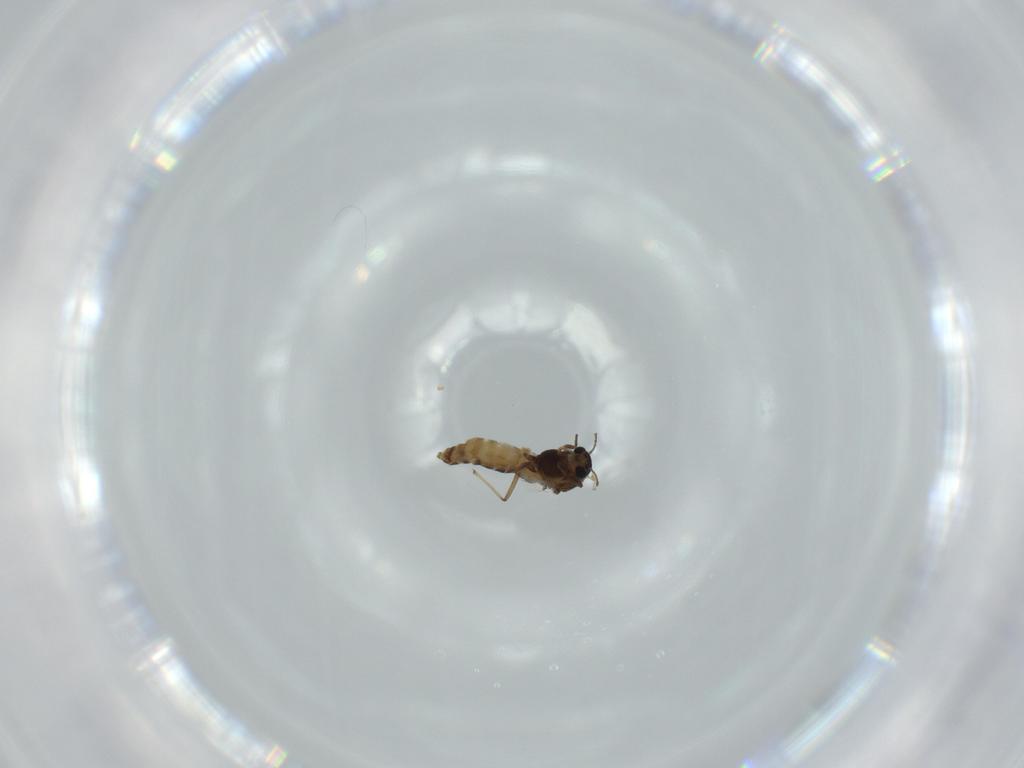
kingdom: Animalia
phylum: Arthropoda
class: Insecta
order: Diptera
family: Chironomidae
